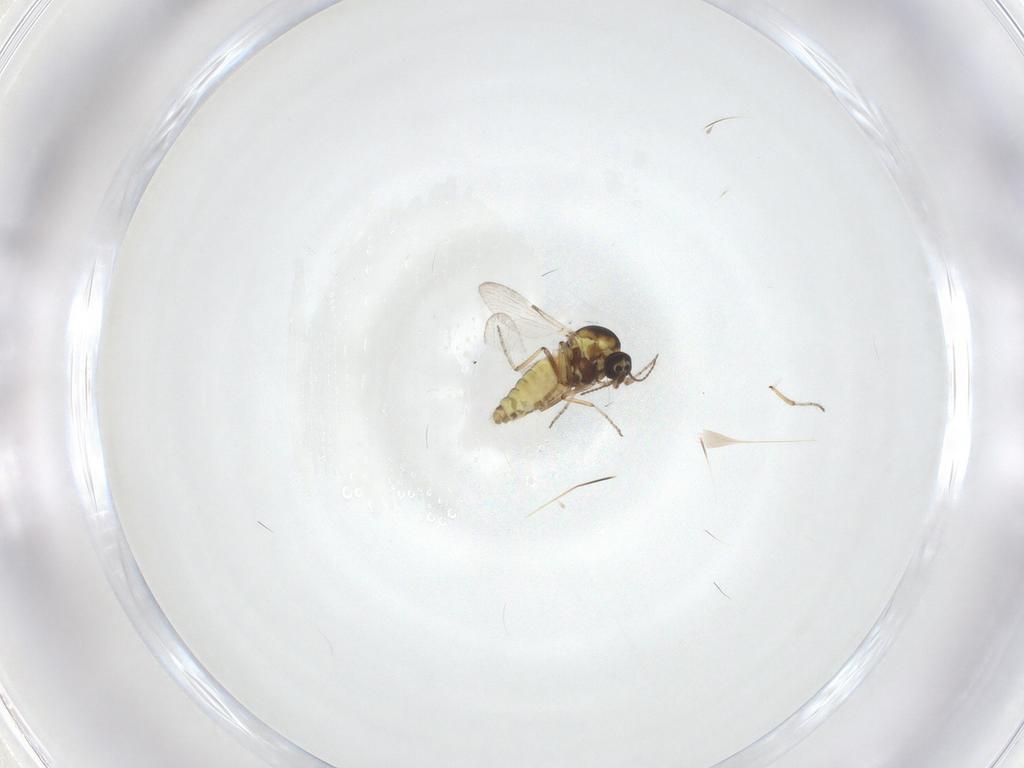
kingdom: Animalia
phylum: Arthropoda
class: Insecta
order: Diptera
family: Ceratopogonidae
